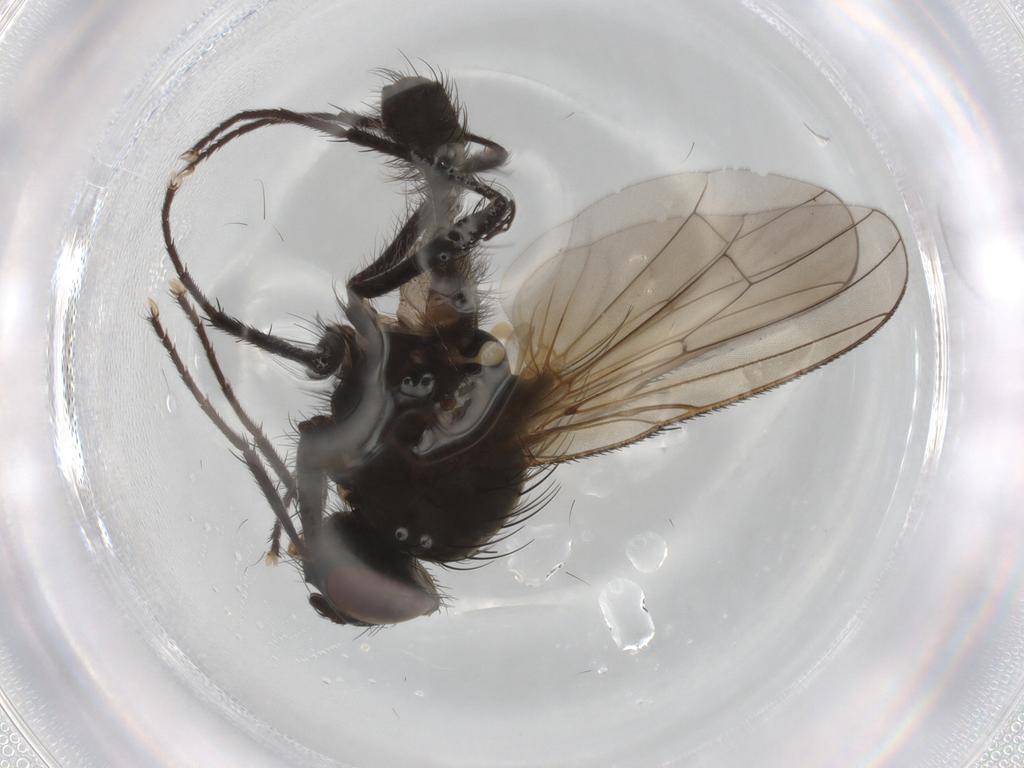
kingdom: Animalia
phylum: Arthropoda
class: Insecta
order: Diptera
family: Anthomyiidae
